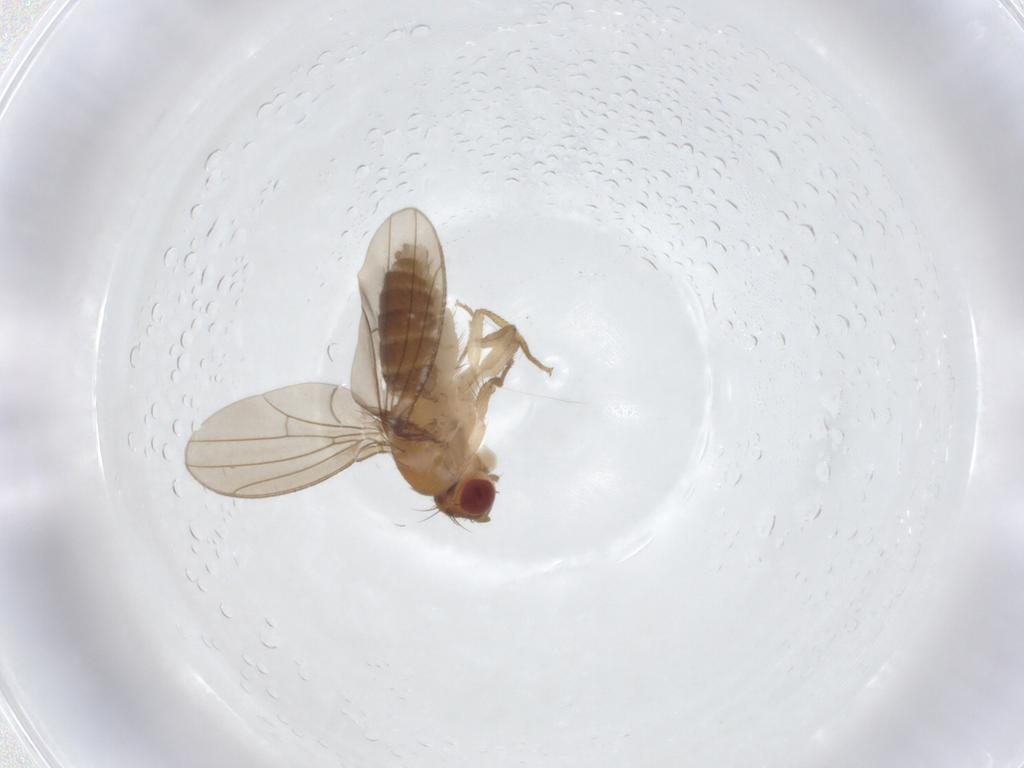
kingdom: Animalia
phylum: Arthropoda
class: Insecta
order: Diptera
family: Drosophilidae
